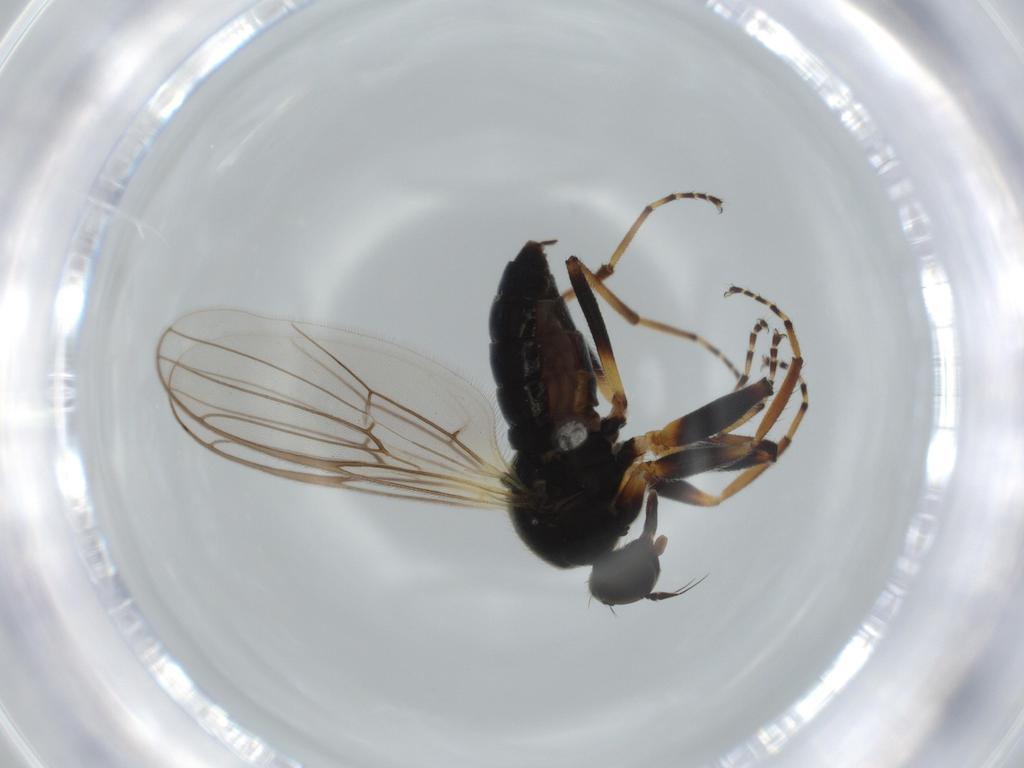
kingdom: Animalia
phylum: Arthropoda
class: Insecta
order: Diptera
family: Hybotidae
